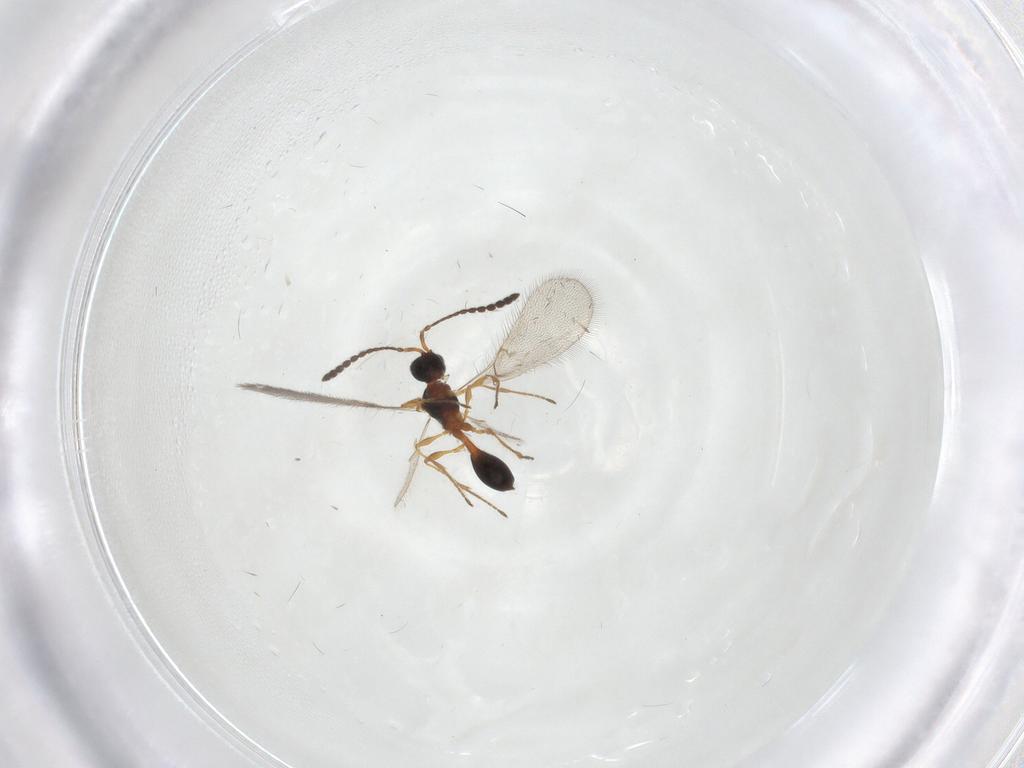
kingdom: Animalia
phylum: Arthropoda
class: Insecta
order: Hymenoptera
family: Diapriidae
